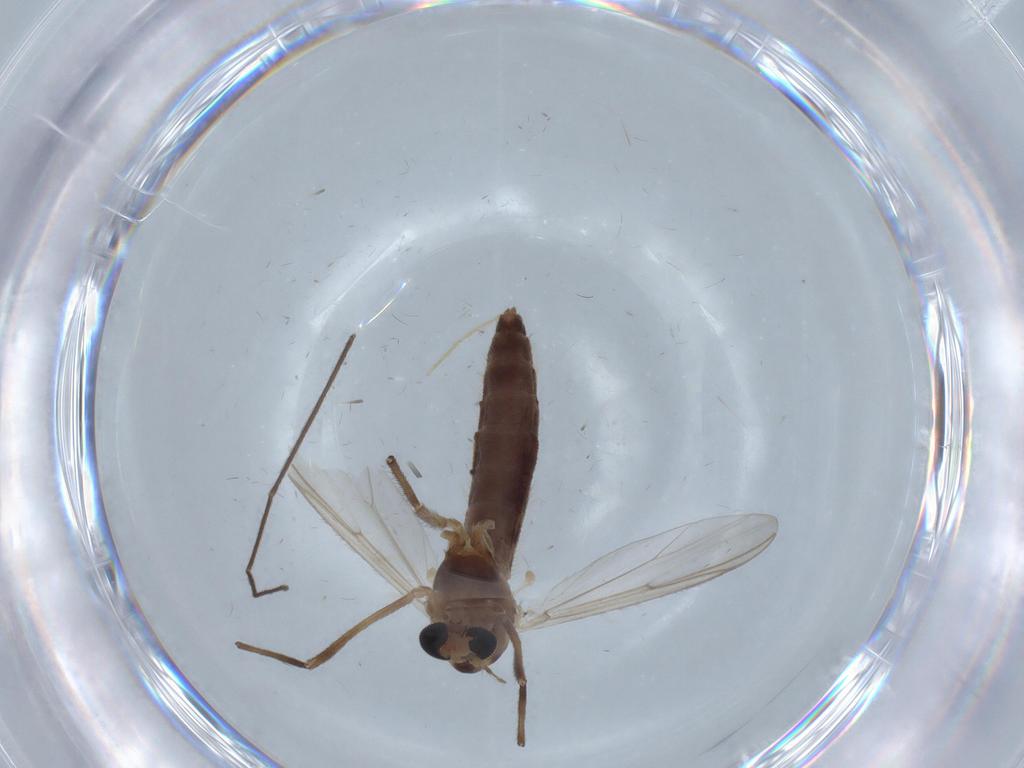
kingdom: Animalia
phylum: Arthropoda
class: Insecta
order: Diptera
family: Chironomidae
